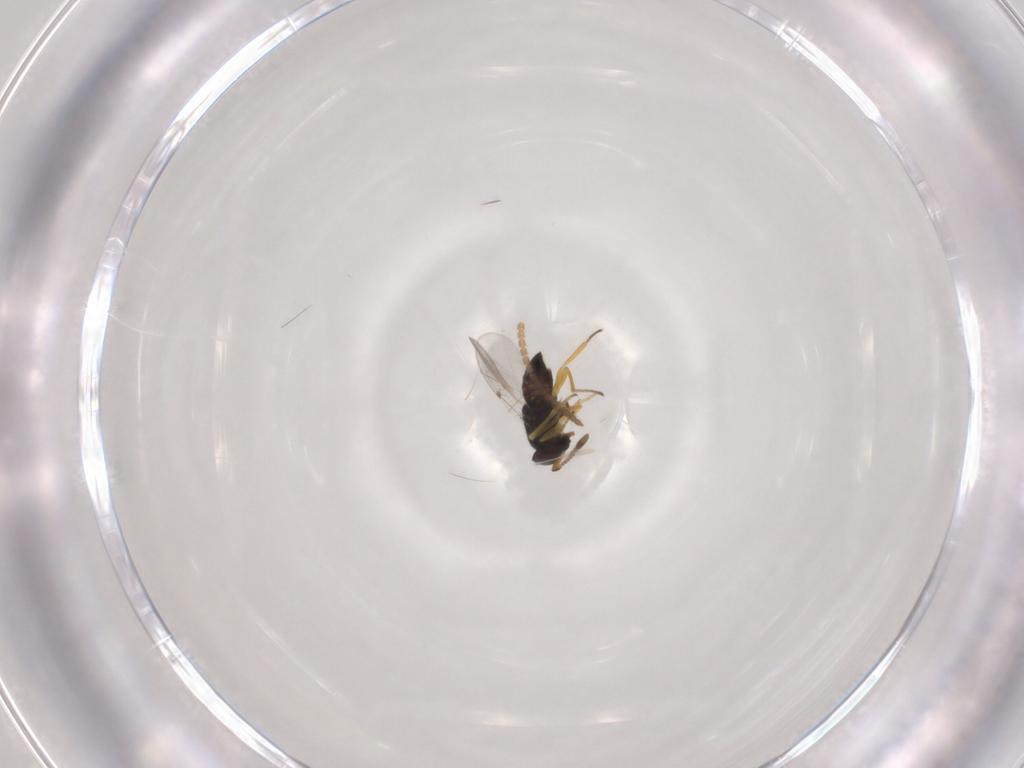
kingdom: Animalia
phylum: Arthropoda
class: Insecta
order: Neuroptera
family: Hemerobiidae
